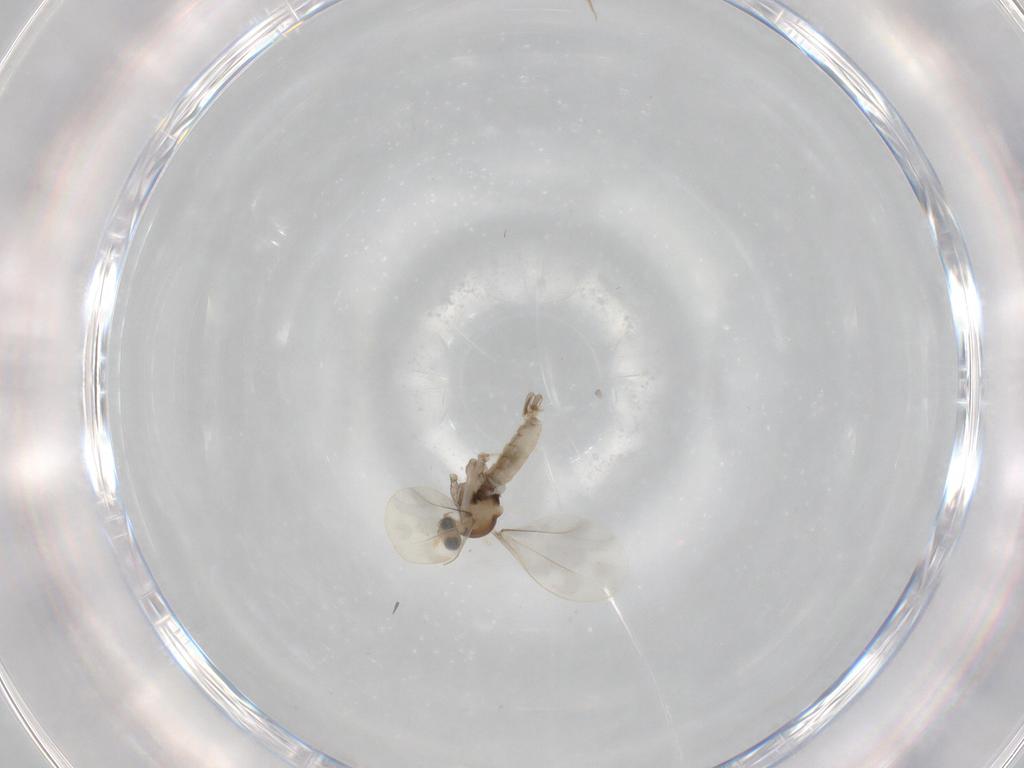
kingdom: Animalia
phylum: Arthropoda
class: Insecta
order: Diptera
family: Cecidomyiidae
